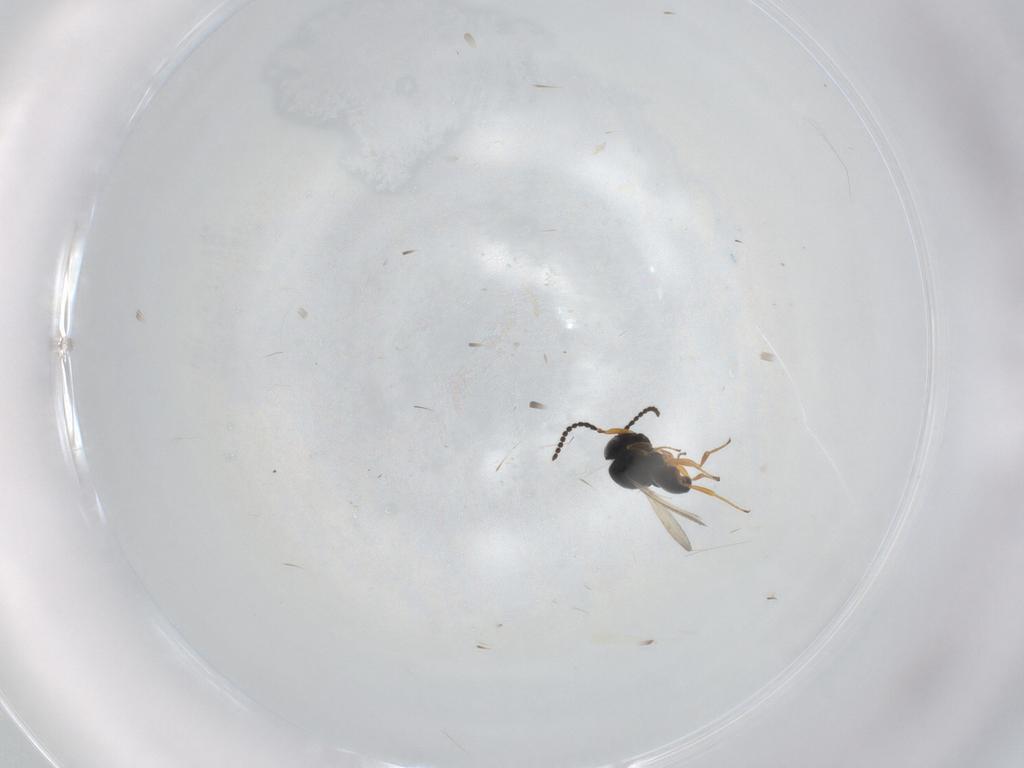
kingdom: Animalia
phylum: Arthropoda
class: Insecta
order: Hymenoptera
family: Scelionidae
